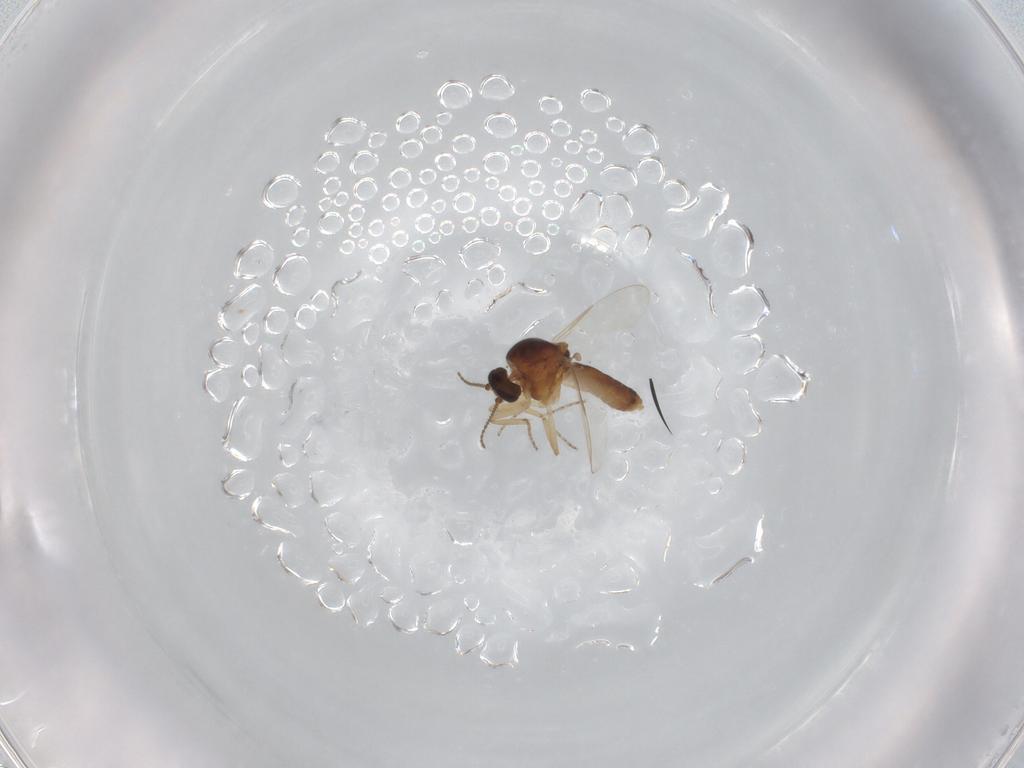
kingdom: Animalia
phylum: Arthropoda
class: Insecta
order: Diptera
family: Ceratopogonidae
